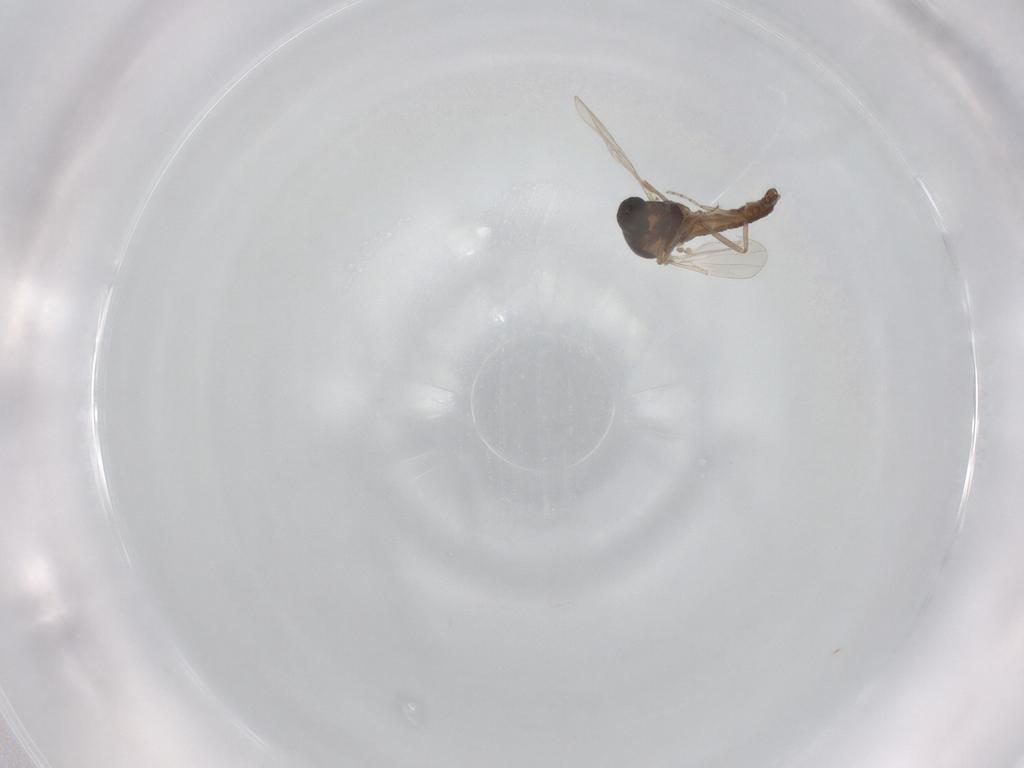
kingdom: Animalia
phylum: Arthropoda
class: Insecta
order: Diptera
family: Ceratopogonidae
